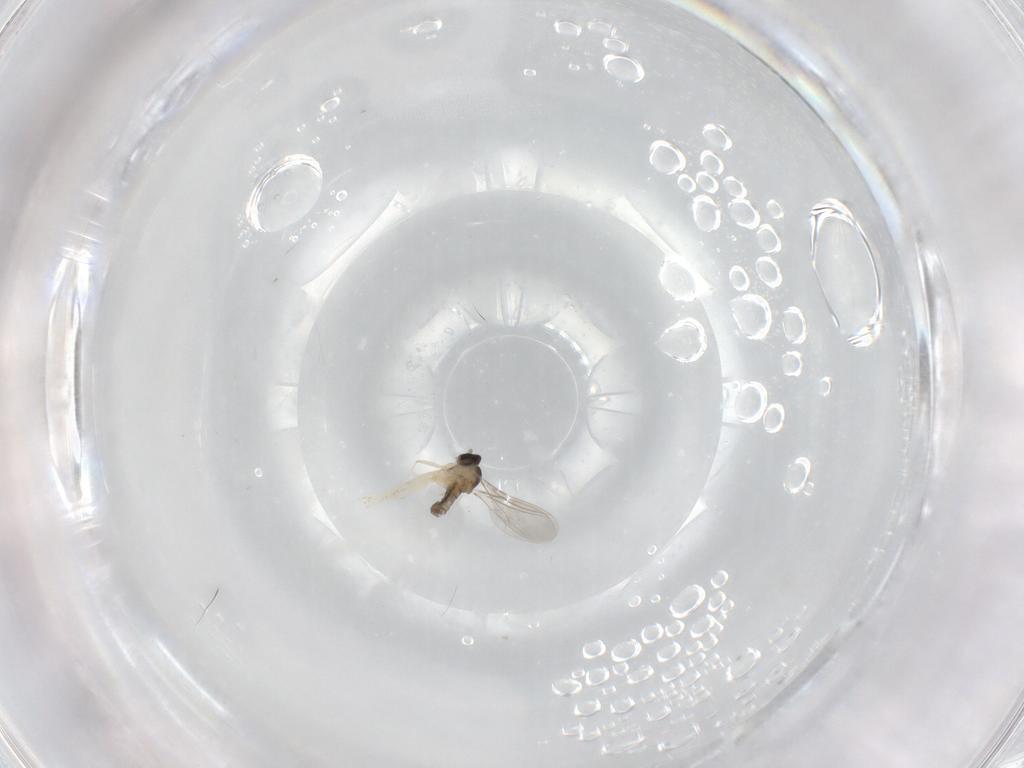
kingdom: Animalia
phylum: Arthropoda
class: Insecta
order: Diptera
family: Cecidomyiidae
